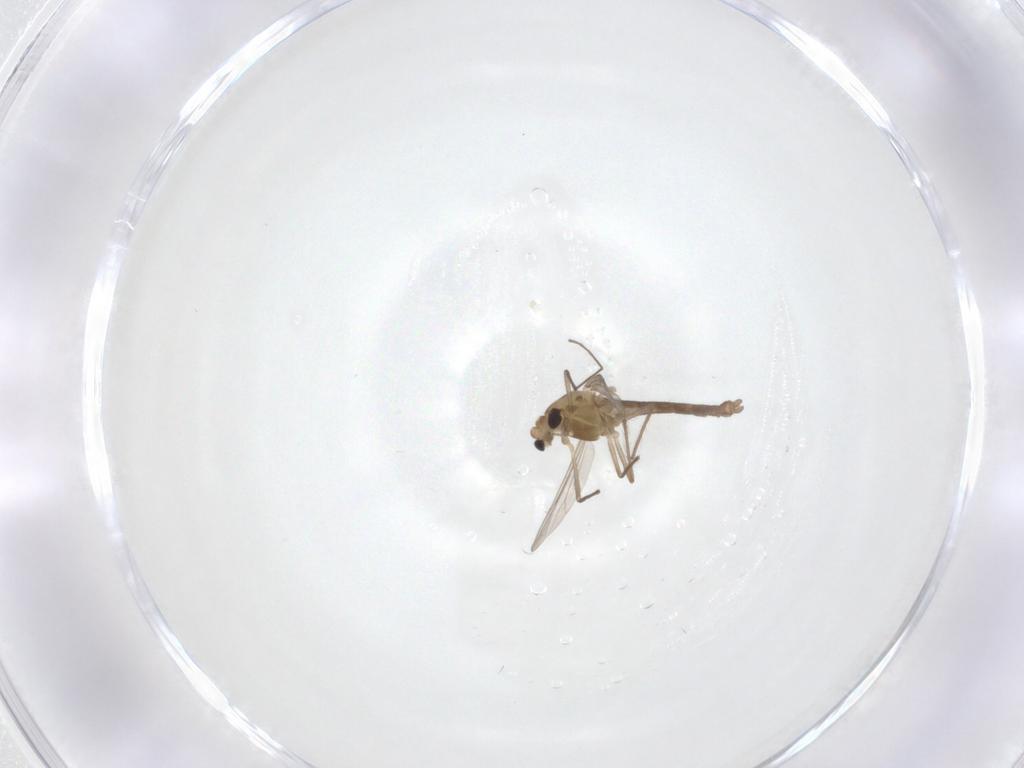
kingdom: Animalia
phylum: Arthropoda
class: Insecta
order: Diptera
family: Chironomidae
